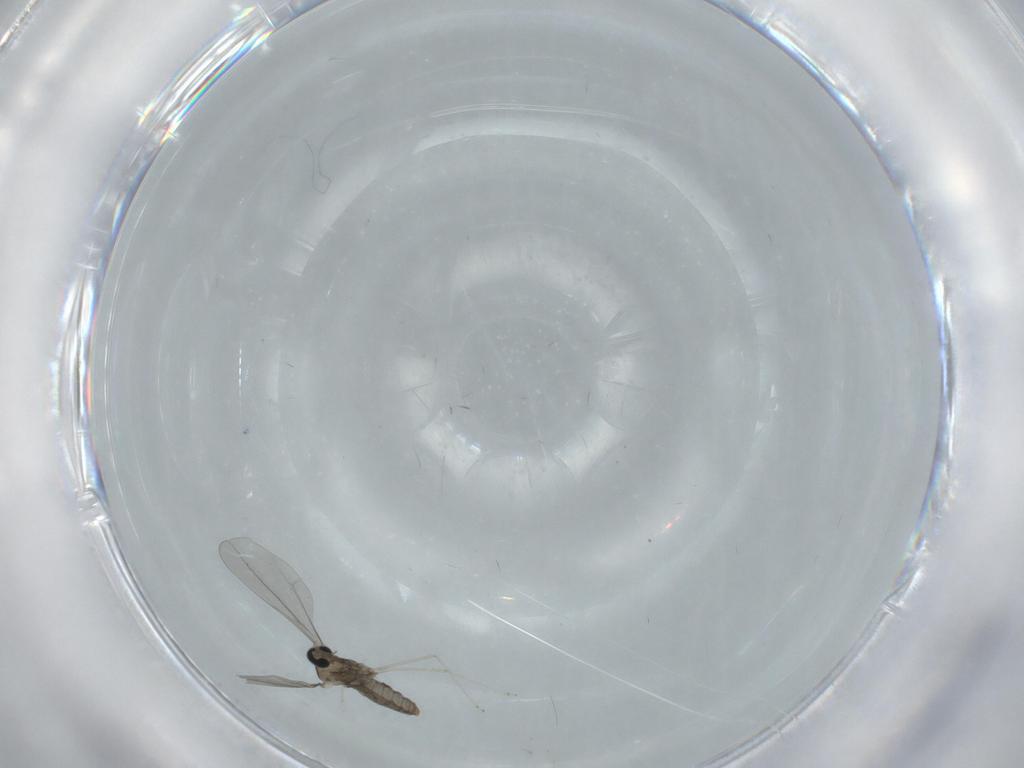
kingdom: Animalia
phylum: Arthropoda
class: Insecta
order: Diptera
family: Cecidomyiidae
